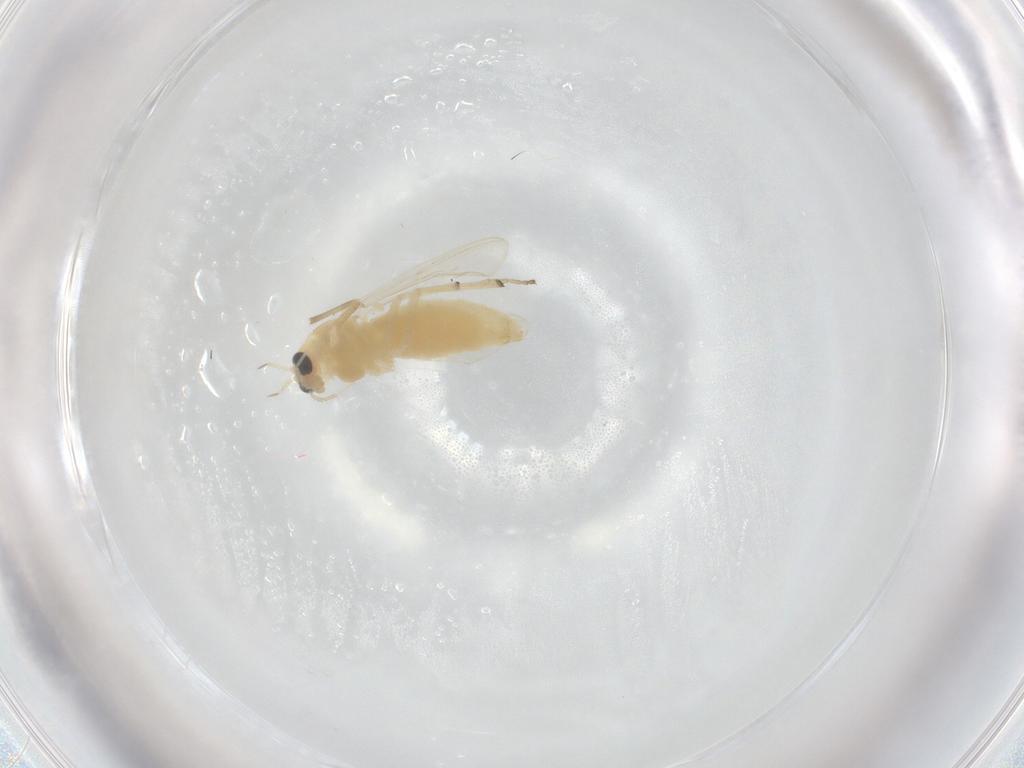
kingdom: Animalia
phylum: Arthropoda
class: Insecta
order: Diptera
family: Chironomidae
